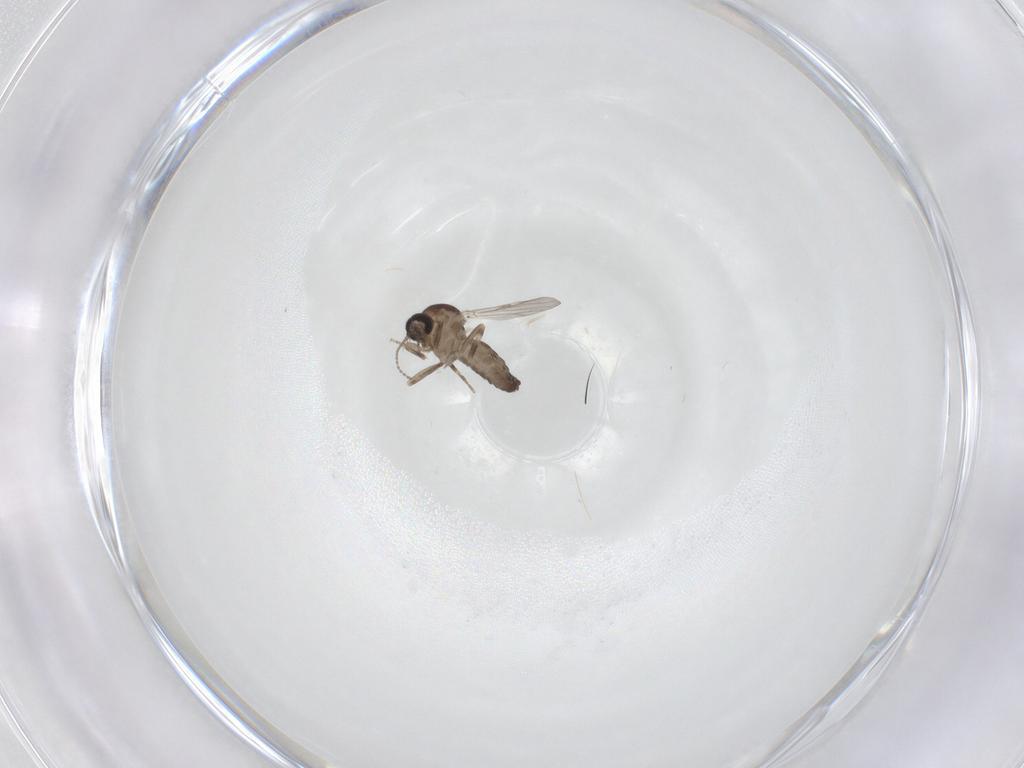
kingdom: Animalia
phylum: Arthropoda
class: Insecta
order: Diptera
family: Ceratopogonidae
